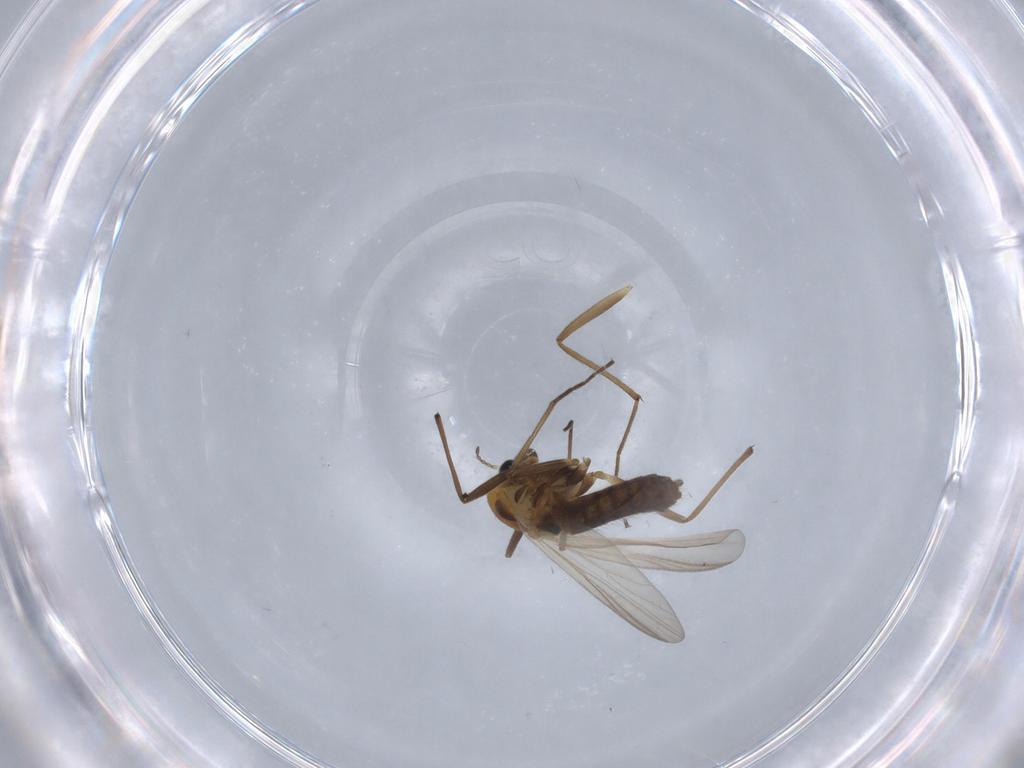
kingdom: Animalia
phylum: Arthropoda
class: Insecta
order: Diptera
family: Chironomidae
